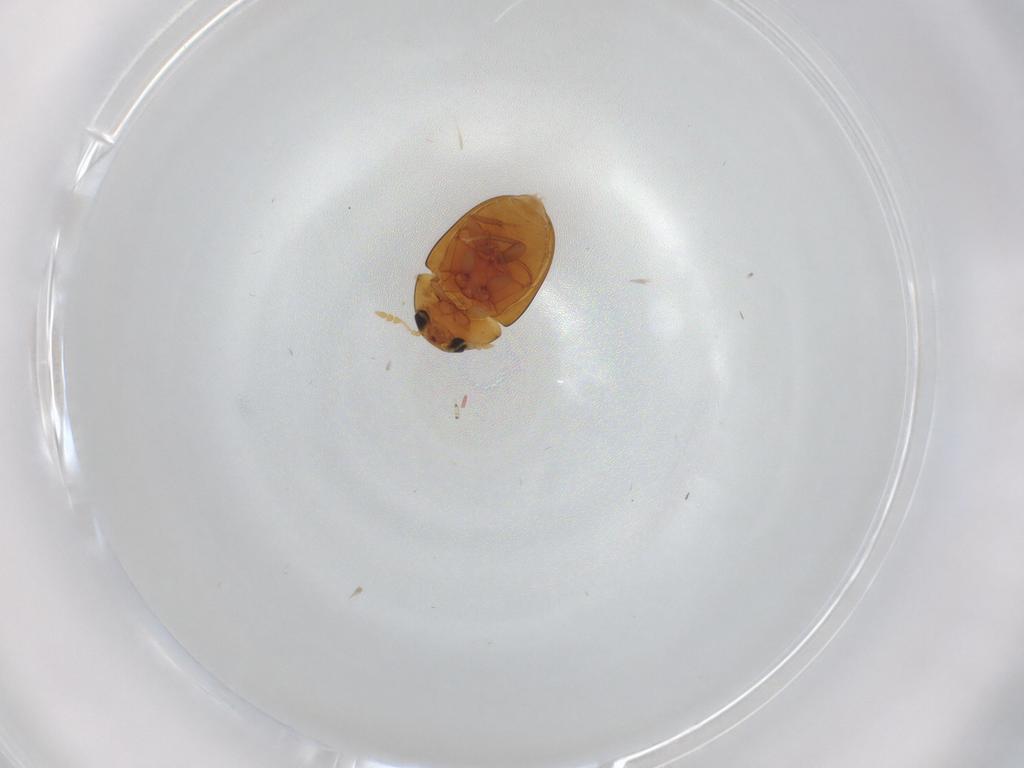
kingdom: Animalia
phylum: Arthropoda
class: Insecta
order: Coleoptera
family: Phalacridae
